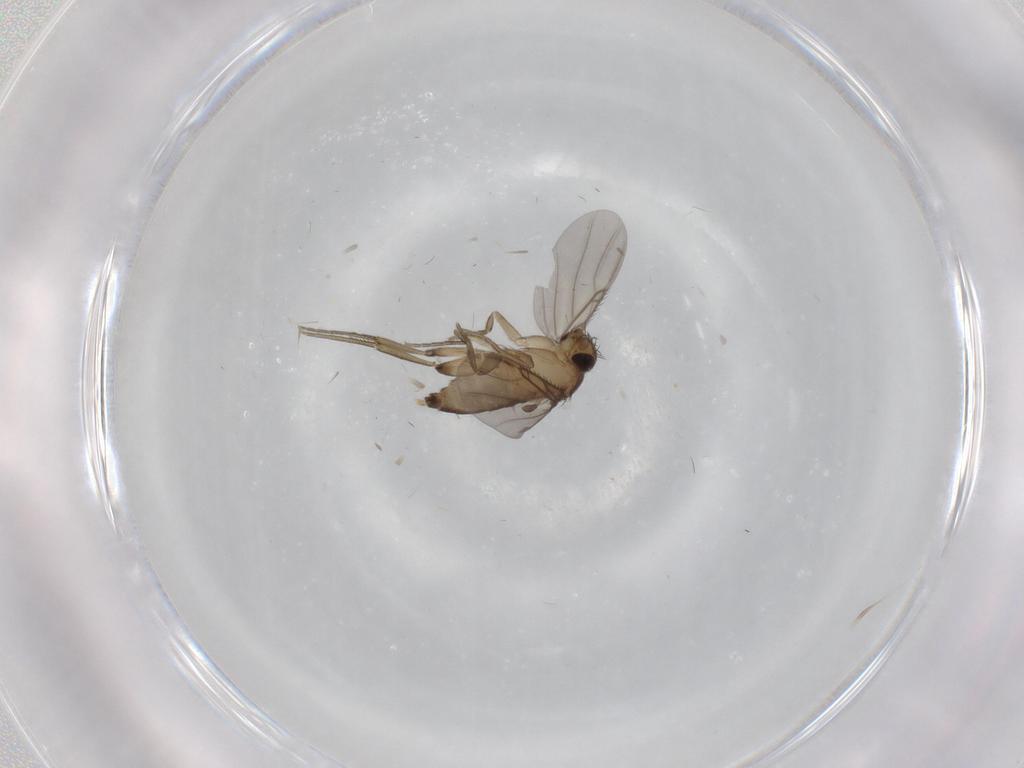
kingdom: Animalia
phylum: Arthropoda
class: Insecta
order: Diptera
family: Phoridae
